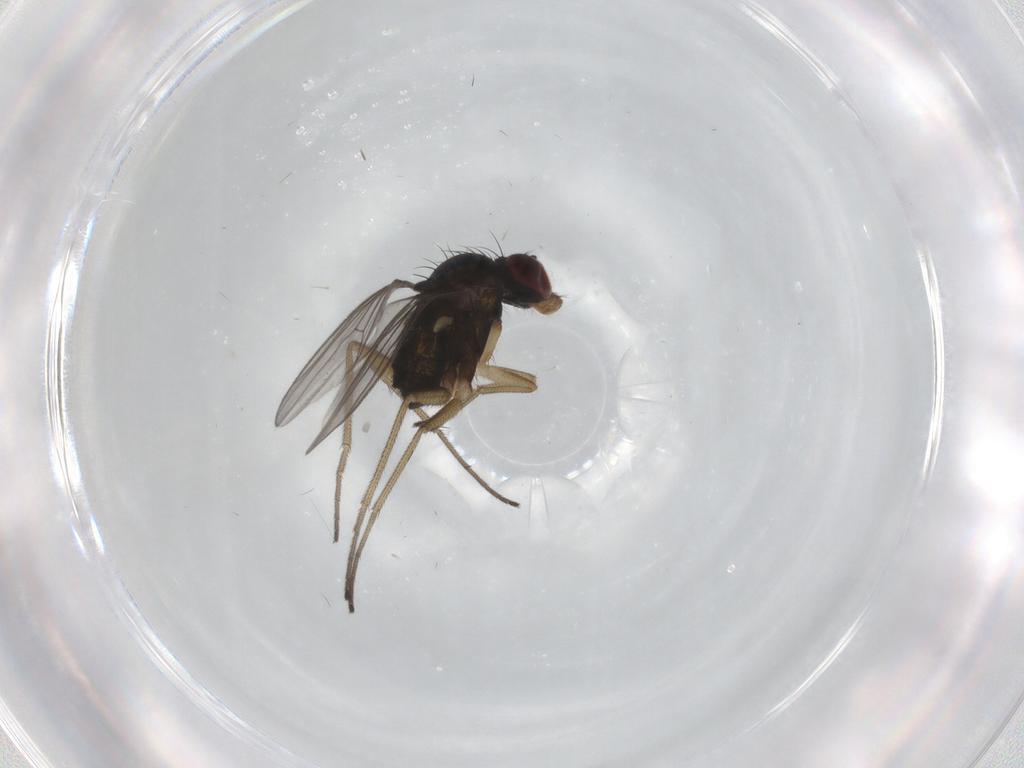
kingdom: Animalia
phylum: Arthropoda
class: Insecta
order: Diptera
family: Dolichopodidae
